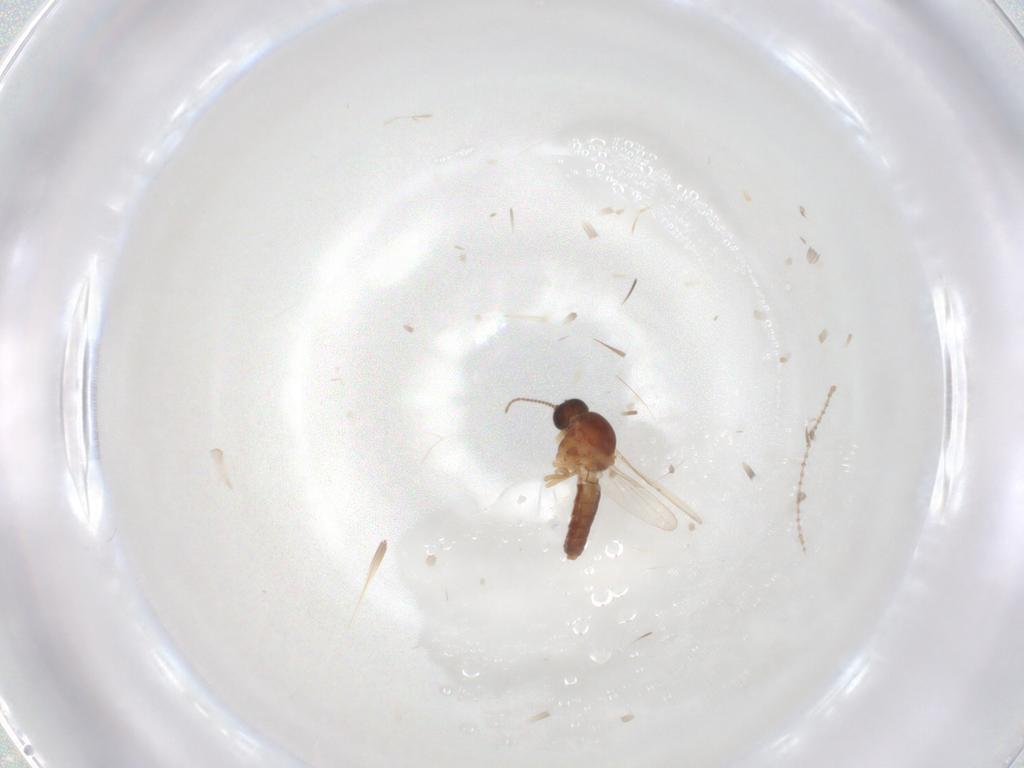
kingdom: Animalia
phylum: Arthropoda
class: Insecta
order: Diptera
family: Ceratopogonidae
